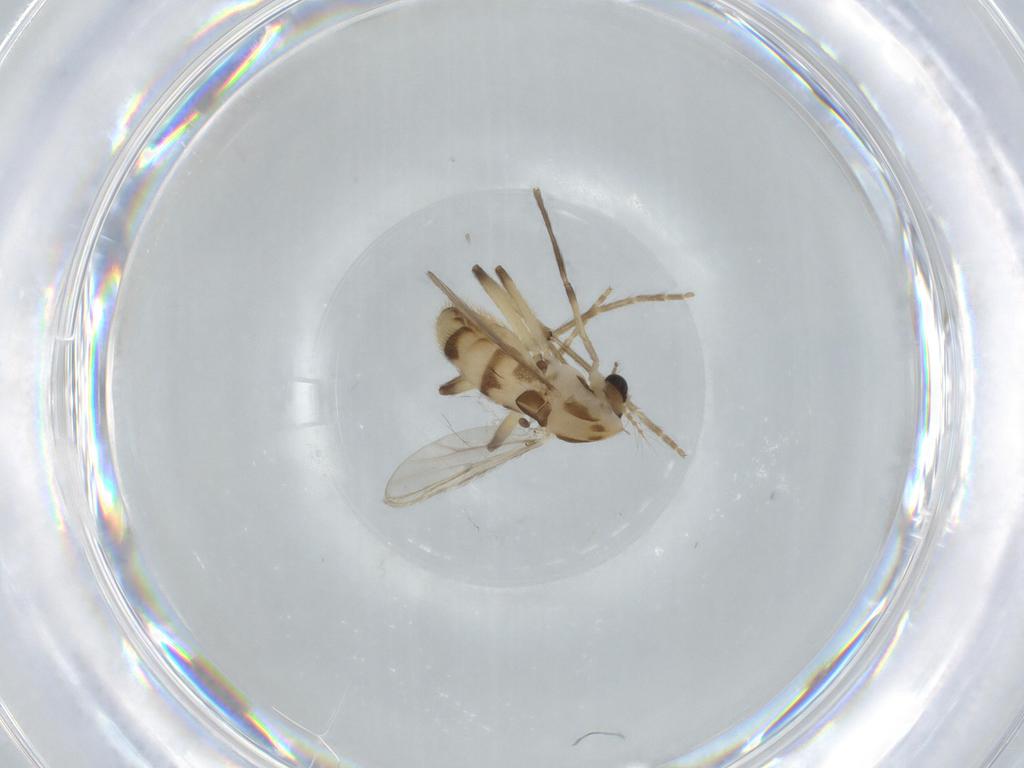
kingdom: Animalia
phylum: Arthropoda
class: Insecta
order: Diptera
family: Chironomidae
